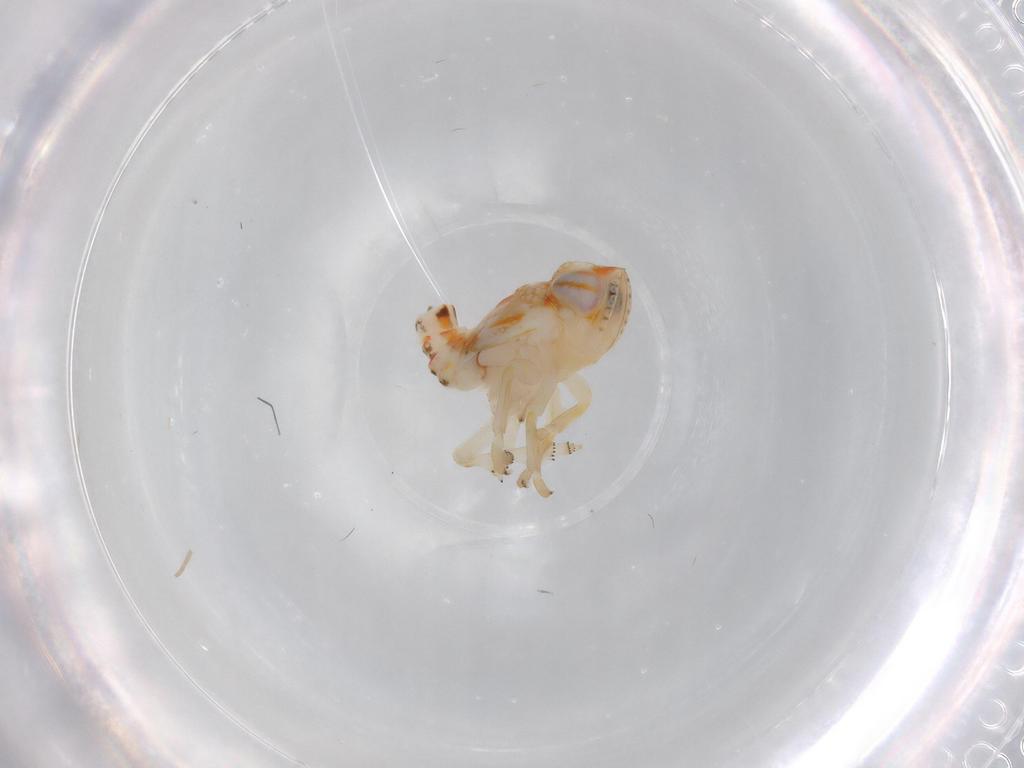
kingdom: Animalia
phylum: Arthropoda
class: Insecta
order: Hemiptera
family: Nogodinidae
